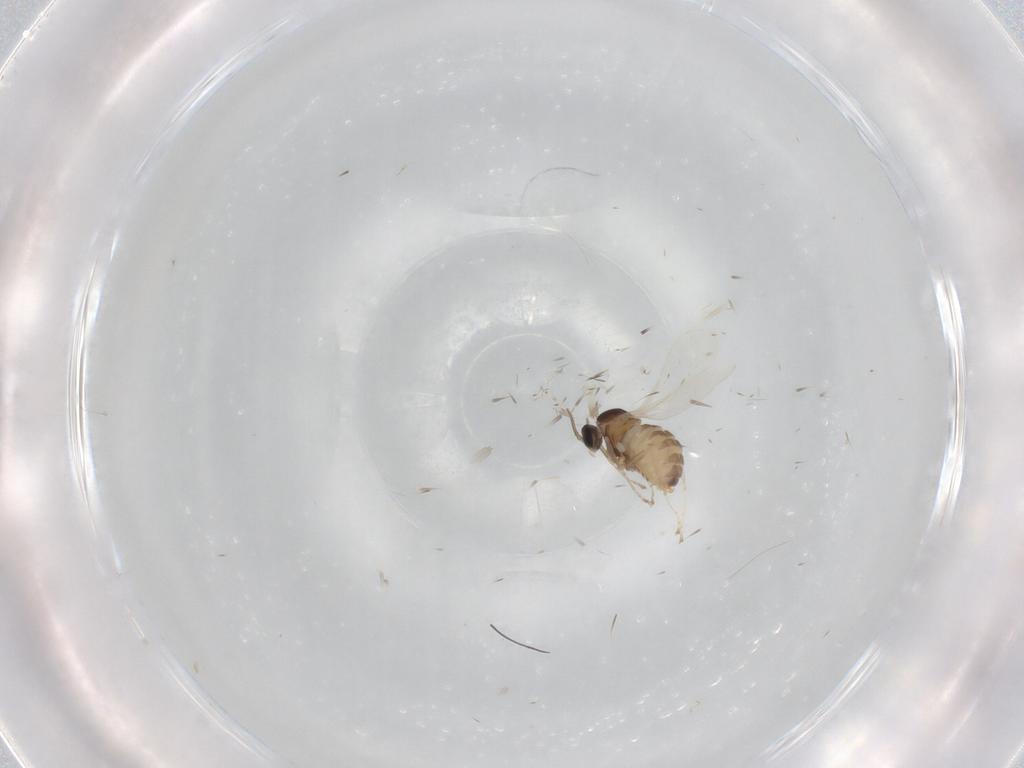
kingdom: Animalia
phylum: Arthropoda
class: Insecta
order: Diptera
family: Cecidomyiidae
